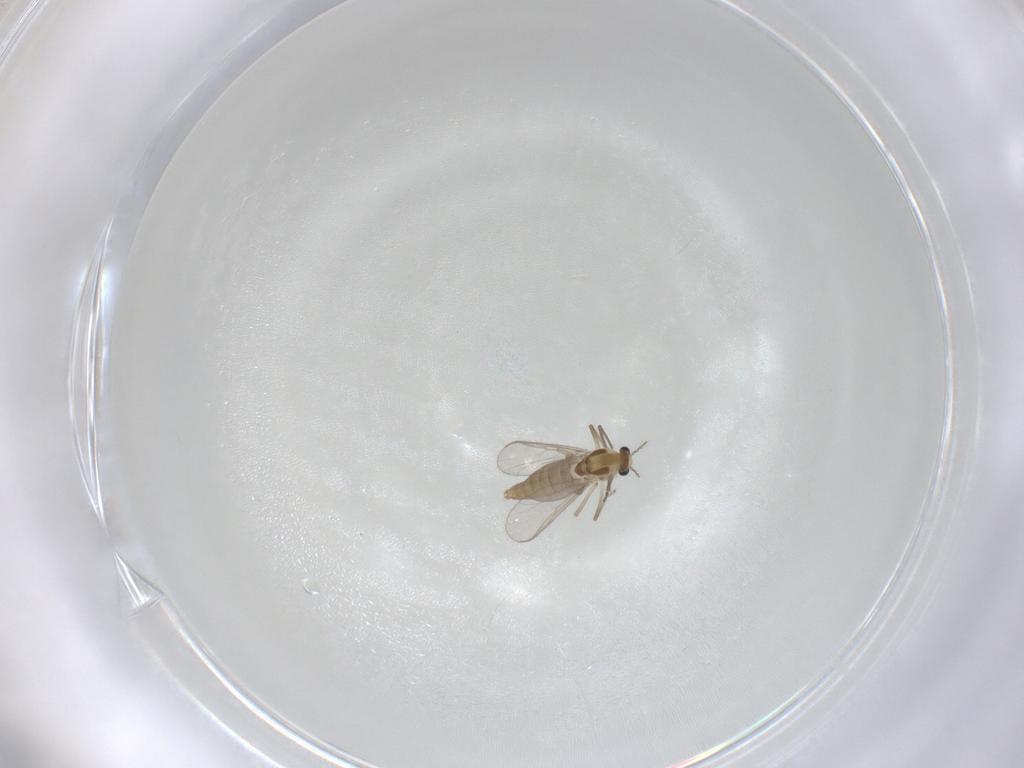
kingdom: Animalia
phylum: Arthropoda
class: Insecta
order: Diptera
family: Chironomidae
